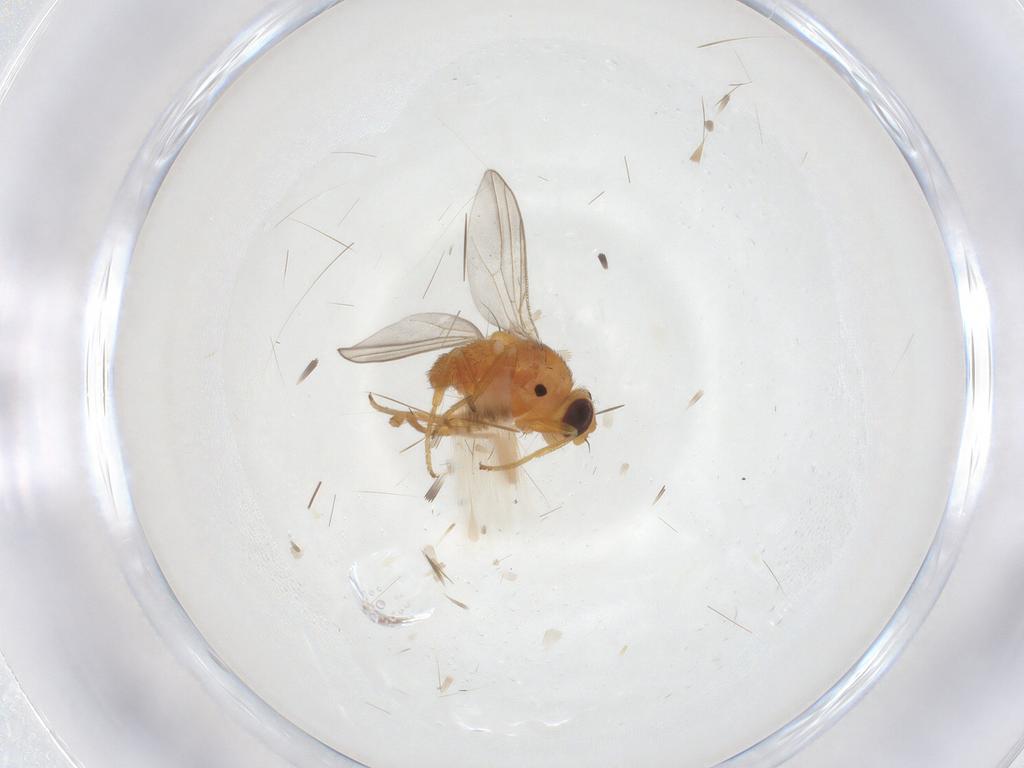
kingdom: Animalia
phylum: Arthropoda
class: Insecta
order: Diptera
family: Chloropidae
